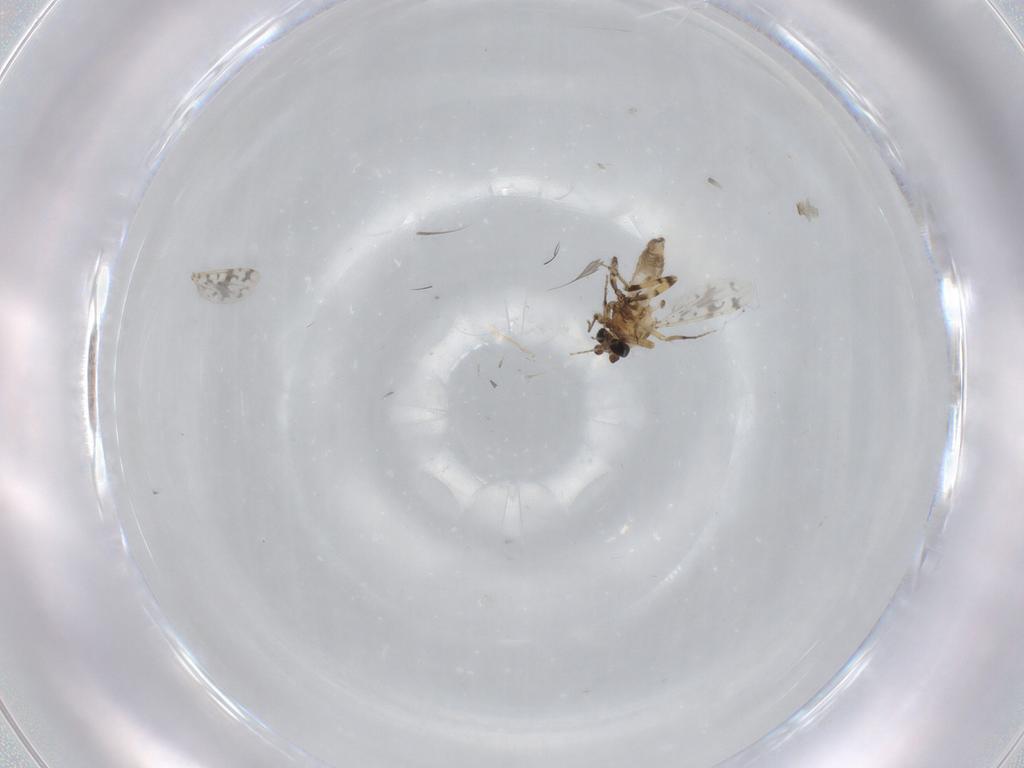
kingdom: Animalia
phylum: Arthropoda
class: Insecta
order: Diptera
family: Ceratopogonidae
